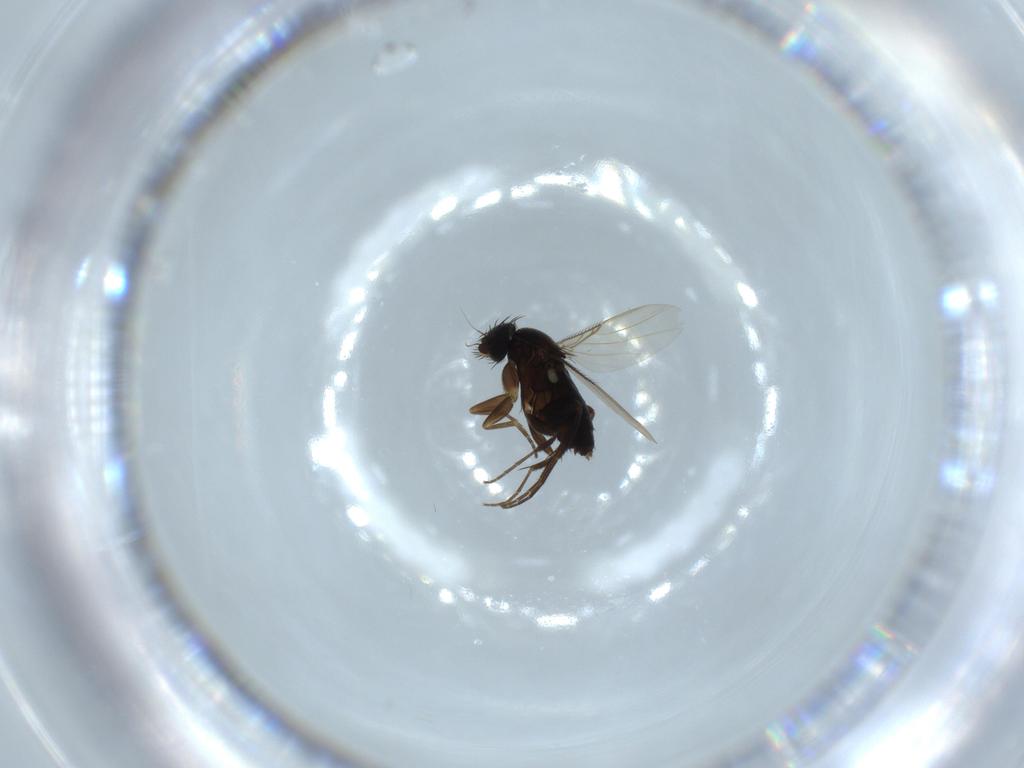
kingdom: Animalia
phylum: Arthropoda
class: Insecta
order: Diptera
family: Phoridae
